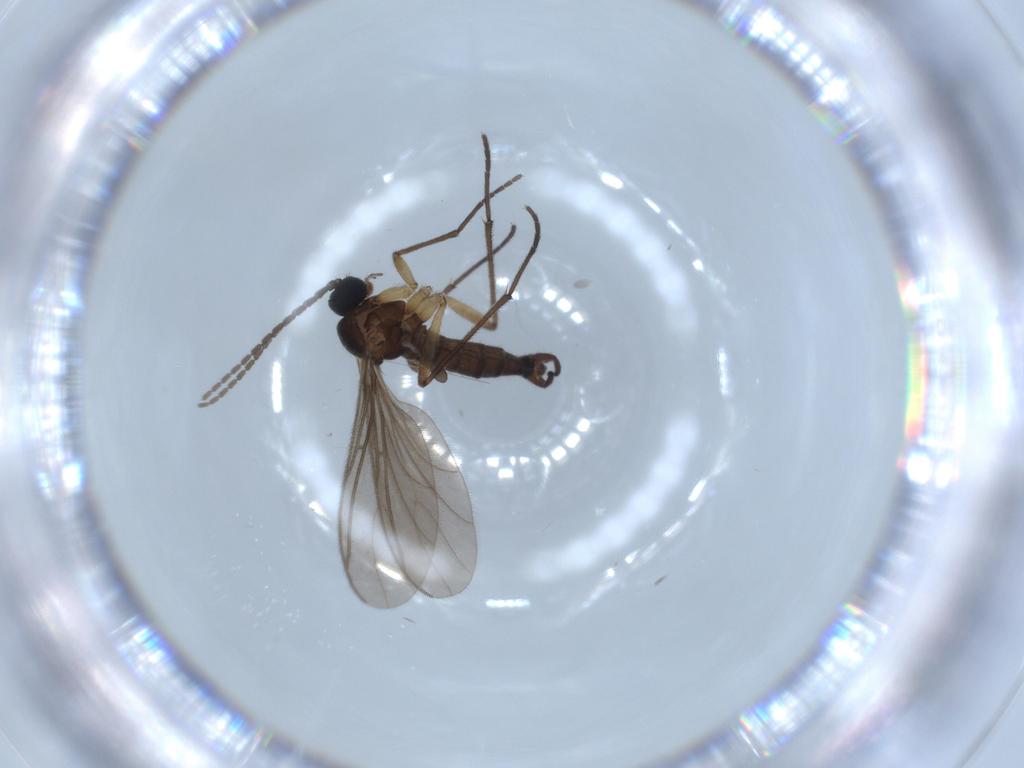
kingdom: Animalia
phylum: Arthropoda
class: Insecta
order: Diptera
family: Sciaridae
